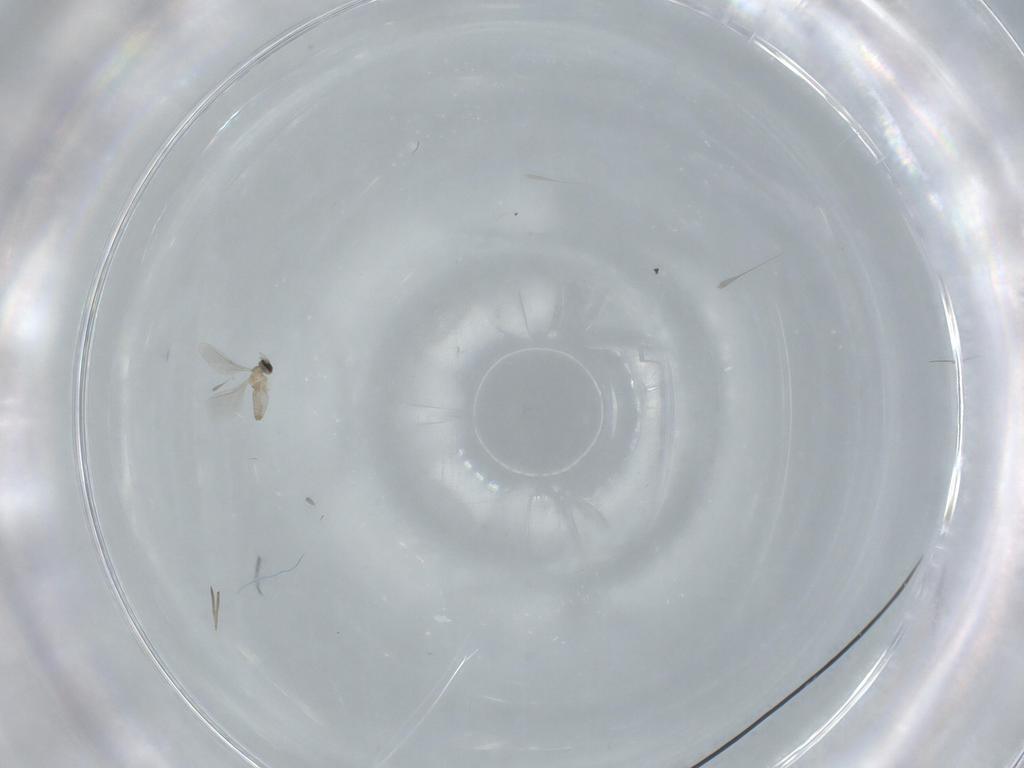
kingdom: Animalia
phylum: Arthropoda
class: Insecta
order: Diptera
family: Cecidomyiidae
